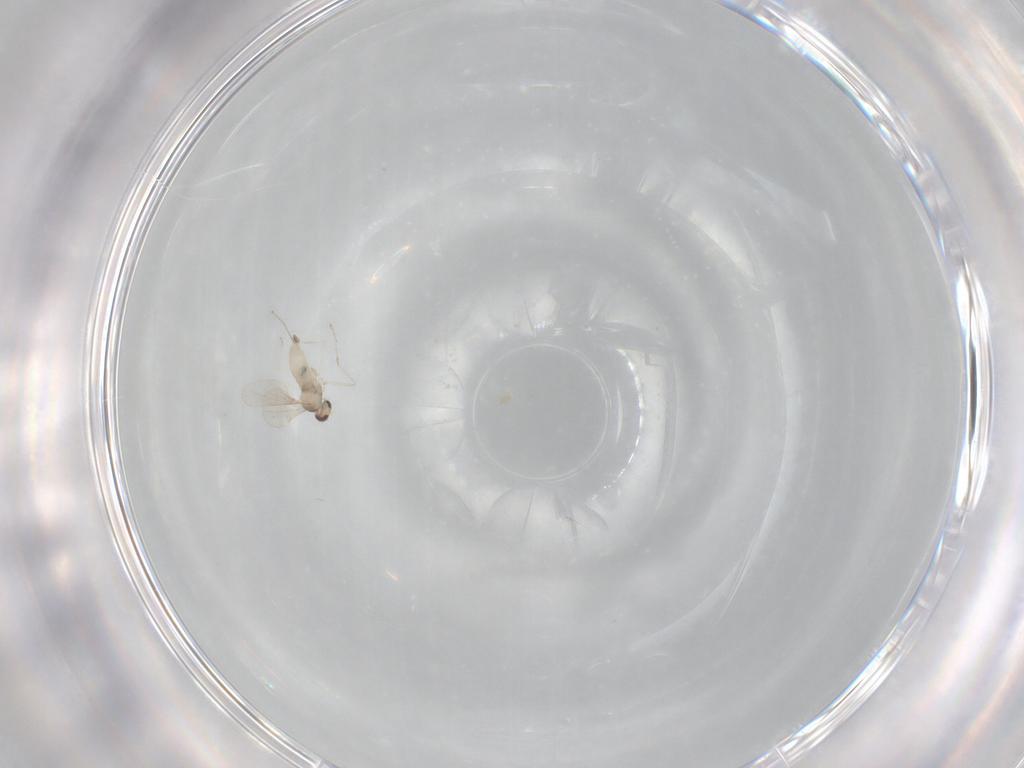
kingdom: Animalia
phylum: Arthropoda
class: Insecta
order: Diptera
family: Cecidomyiidae
